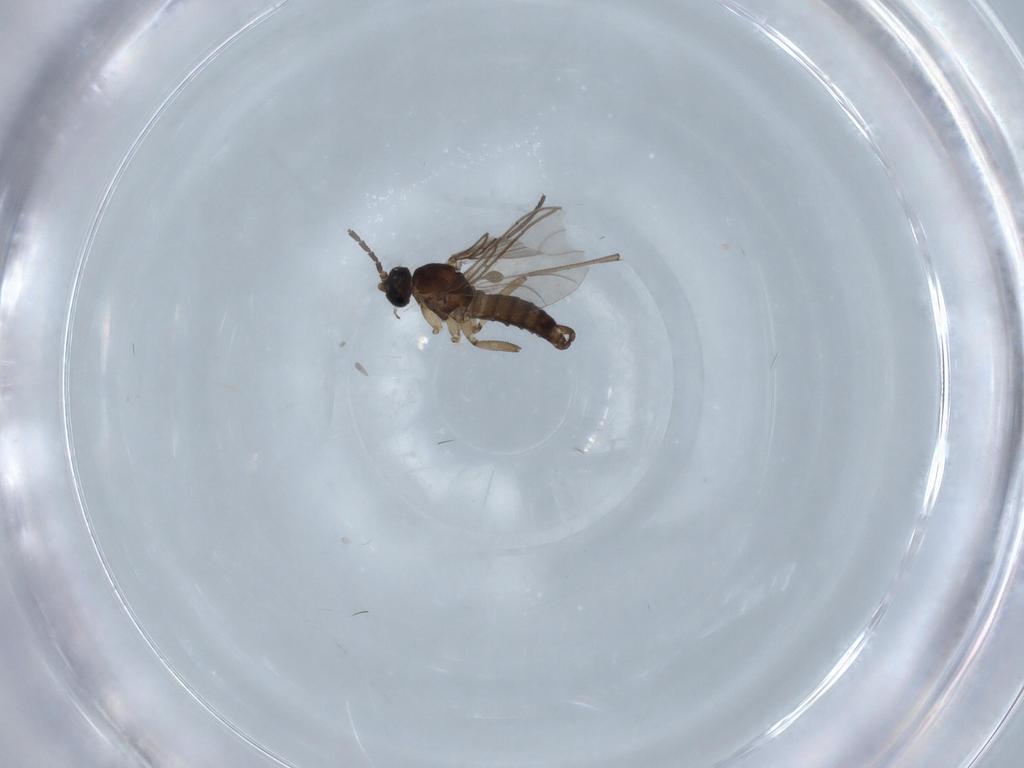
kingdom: Animalia
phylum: Arthropoda
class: Insecta
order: Diptera
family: Sciaridae
